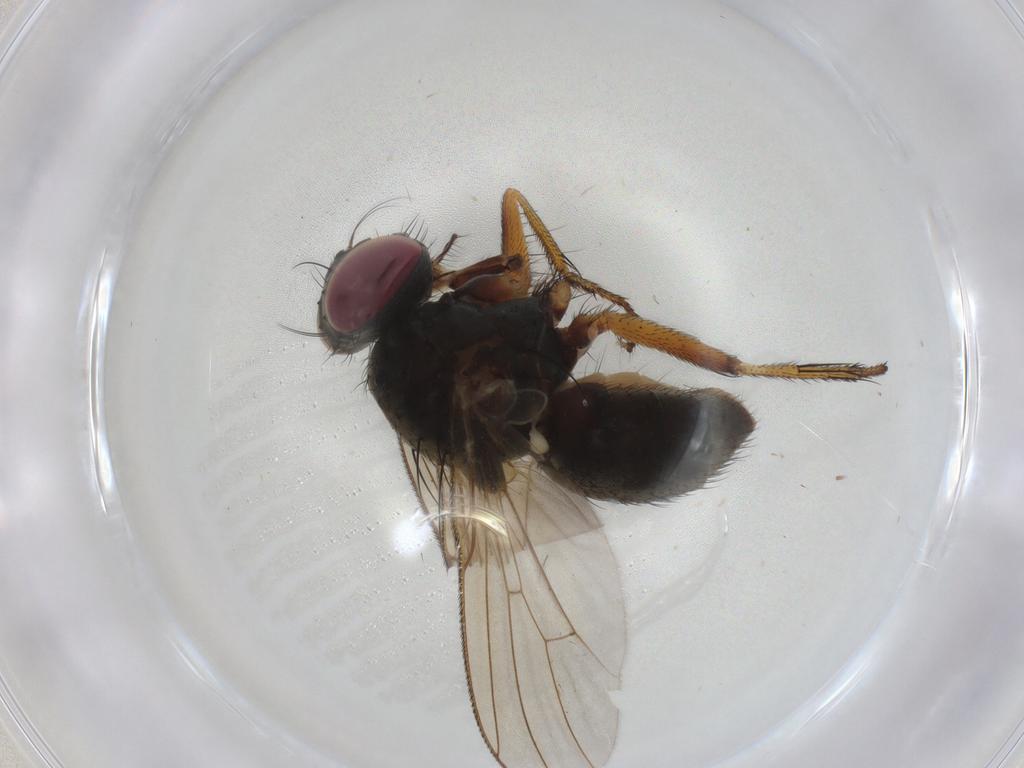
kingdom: Animalia
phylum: Arthropoda
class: Insecta
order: Diptera
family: Muscidae
